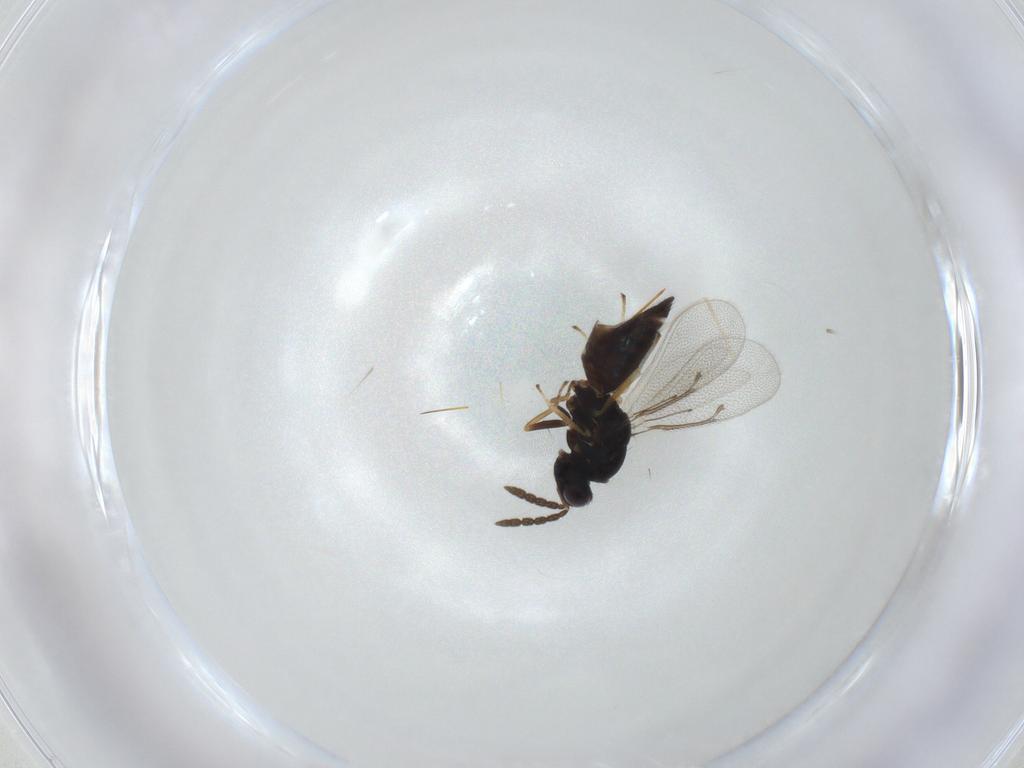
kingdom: Animalia
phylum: Arthropoda
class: Insecta
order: Hymenoptera
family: Eulophidae
